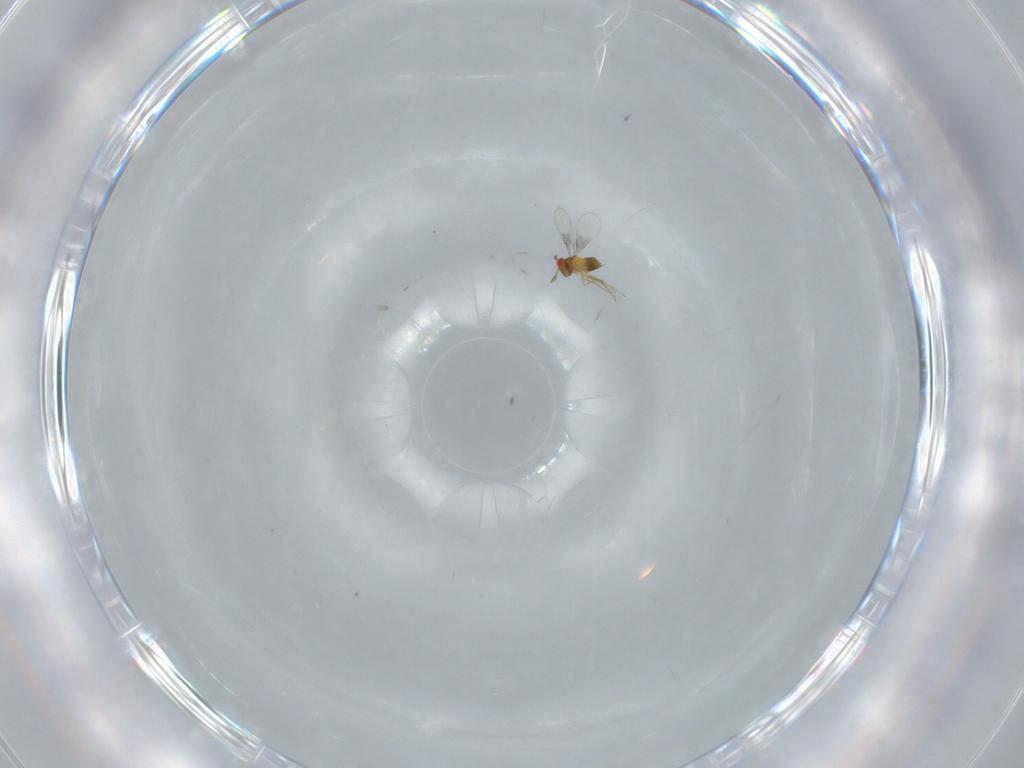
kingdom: Animalia
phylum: Arthropoda
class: Insecta
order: Hymenoptera
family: Trichogrammatidae
